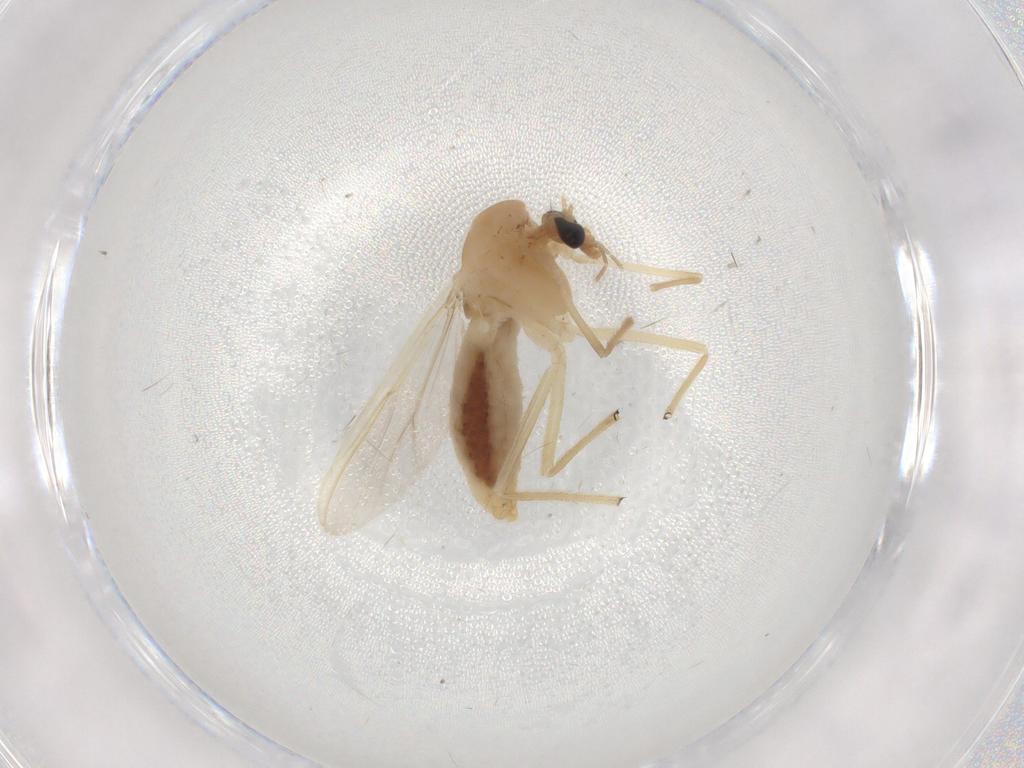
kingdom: Animalia
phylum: Arthropoda
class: Insecta
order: Diptera
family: Chironomidae
